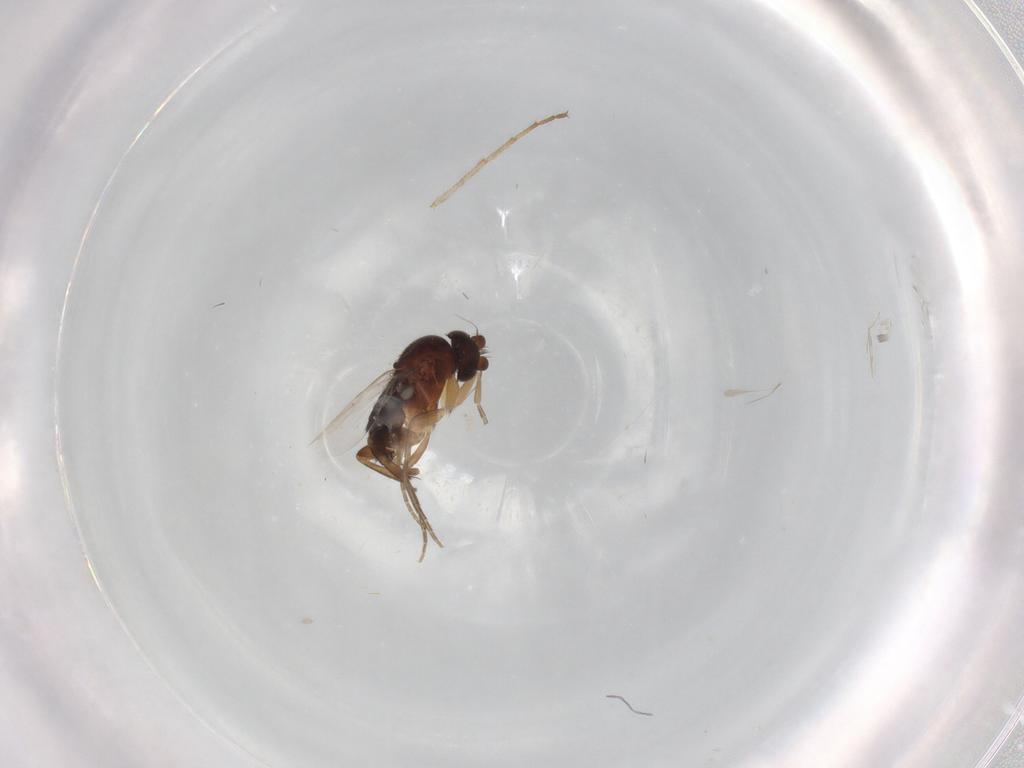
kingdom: Animalia
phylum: Arthropoda
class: Insecta
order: Diptera
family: Phoridae
